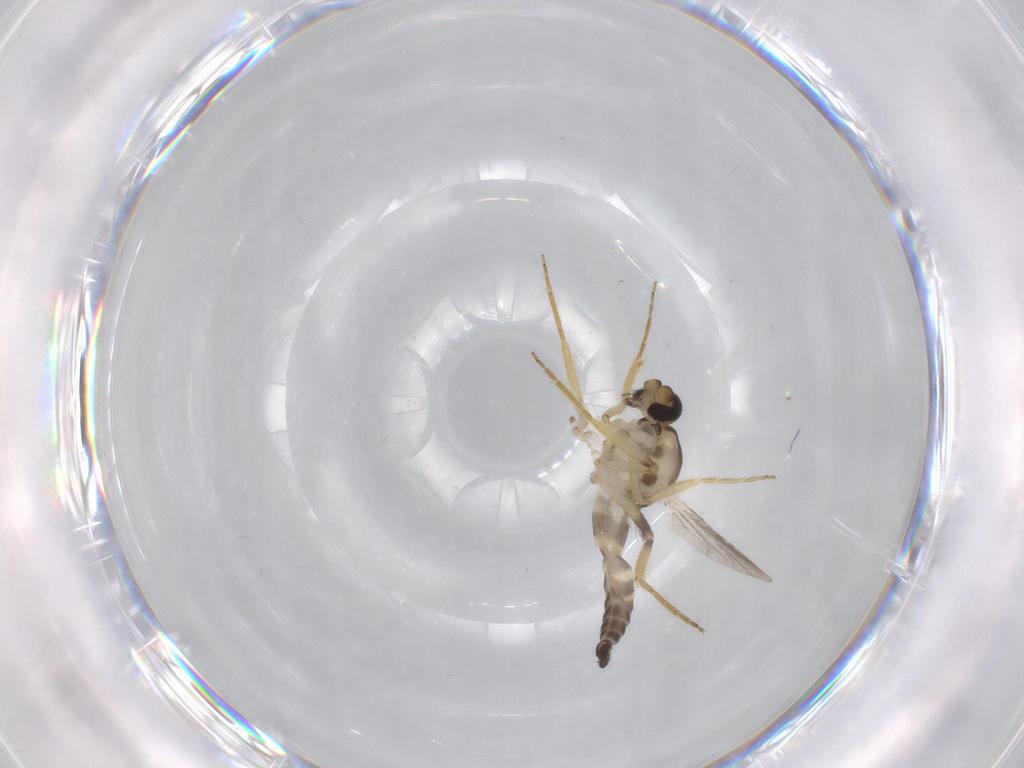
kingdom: Animalia
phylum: Arthropoda
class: Insecta
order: Diptera
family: Ceratopogonidae
